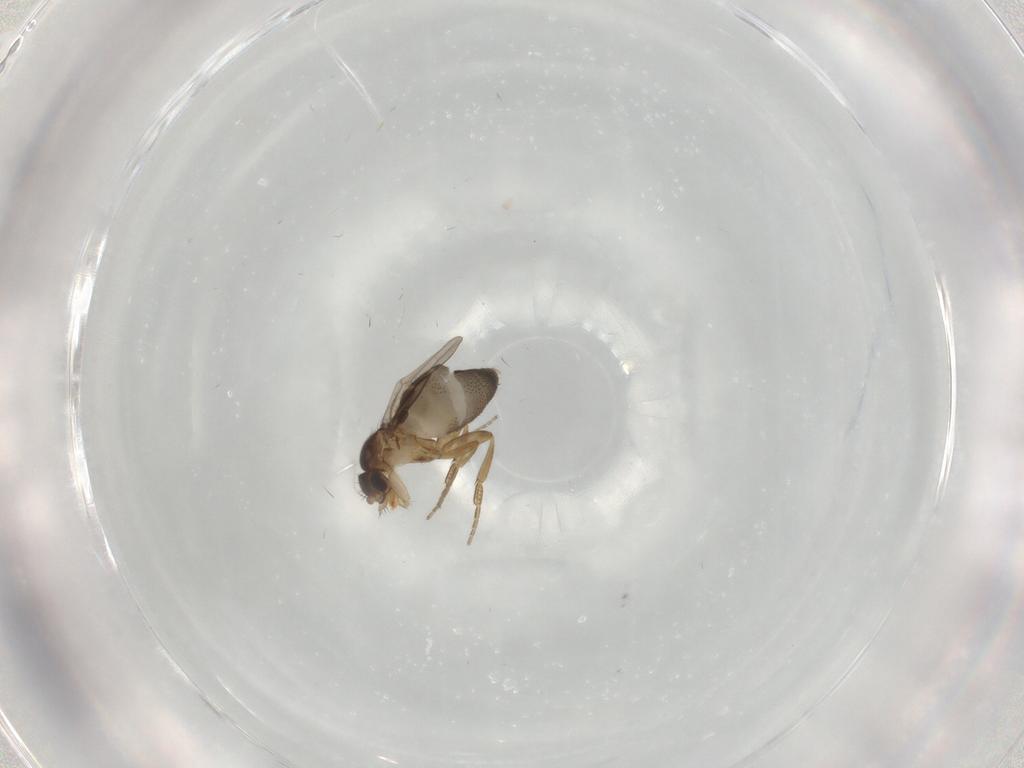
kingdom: Animalia
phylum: Arthropoda
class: Insecta
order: Diptera
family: Phoridae
